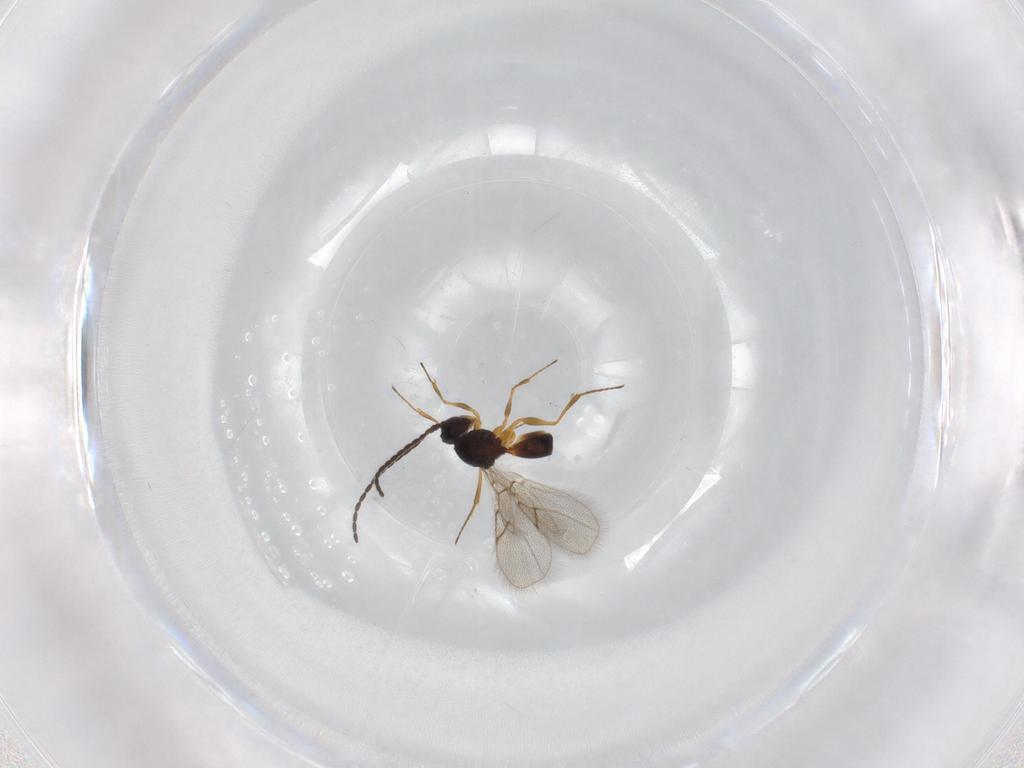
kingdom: Animalia
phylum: Arthropoda
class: Insecta
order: Hymenoptera
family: Figitidae
